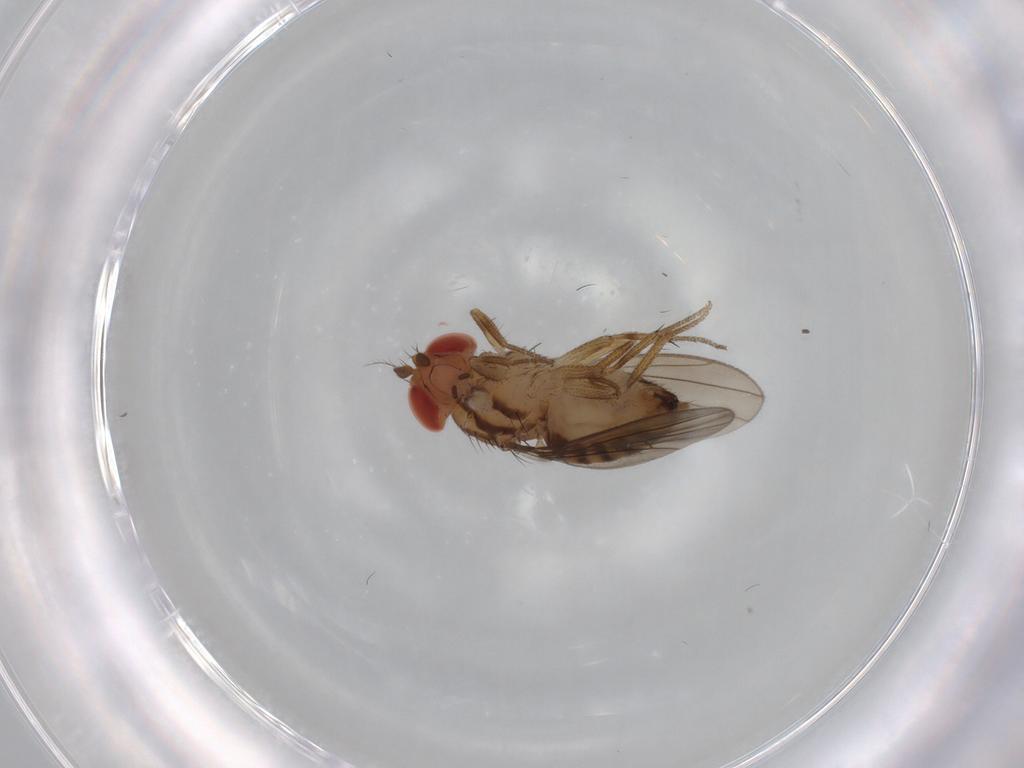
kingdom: Animalia
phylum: Arthropoda
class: Insecta
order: Diptera
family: Drosophilidae
